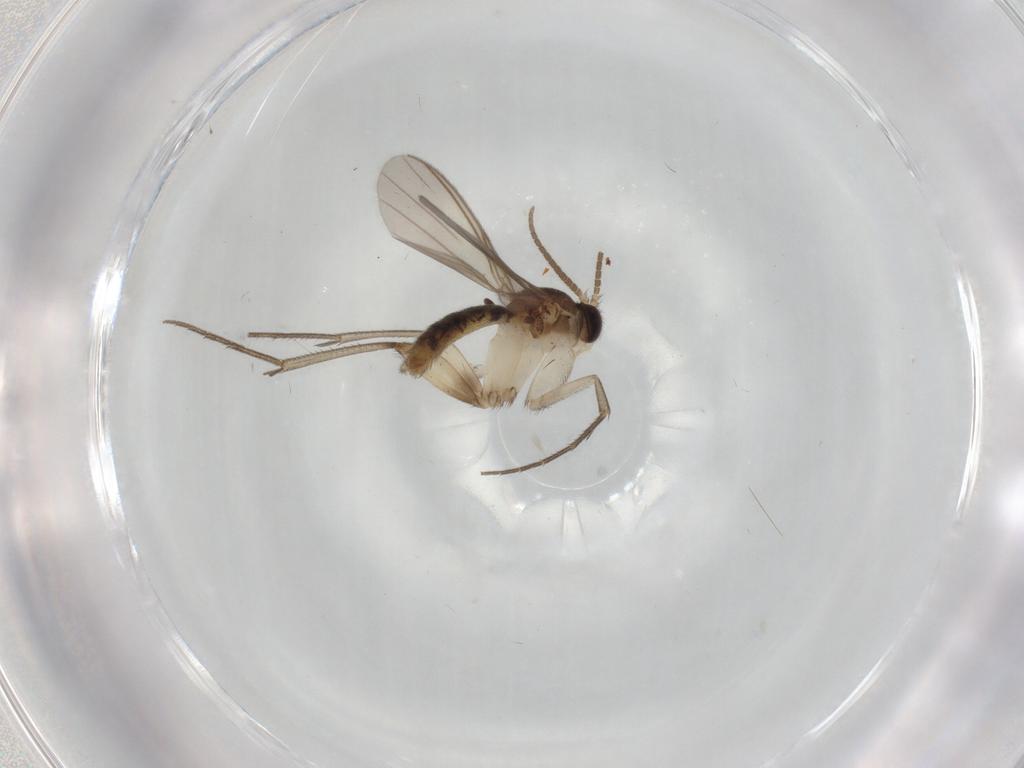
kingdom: Animalia
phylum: Arthropoda
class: Insecta
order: Diptera
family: Mycetophilidae
